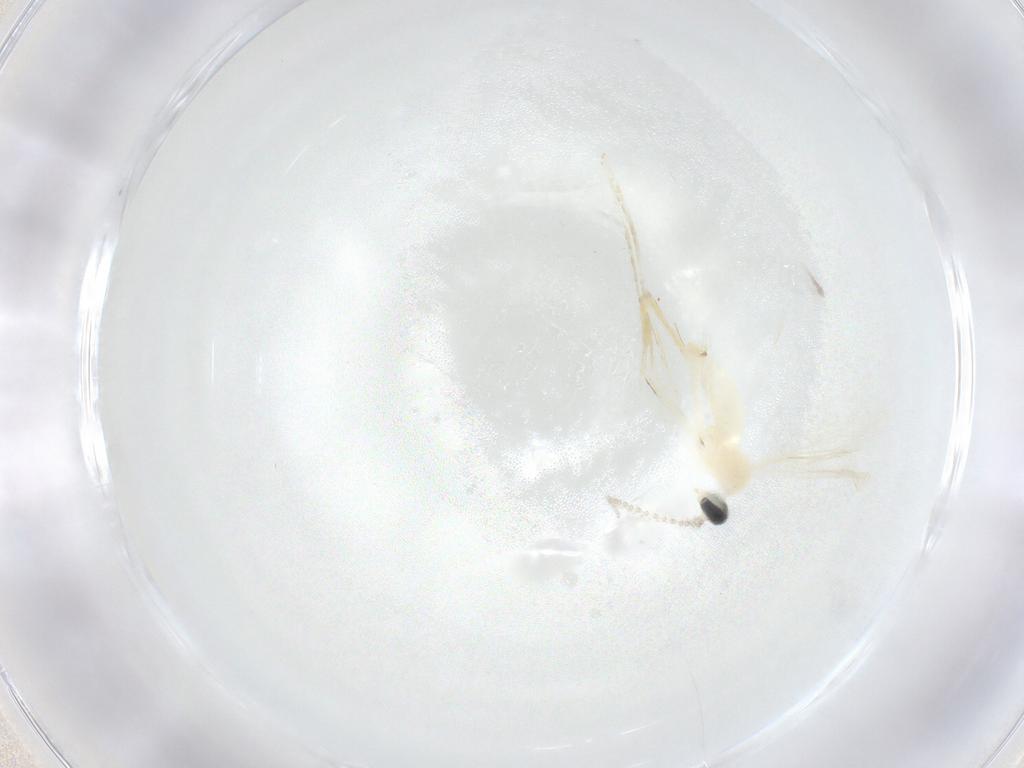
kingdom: Animalia
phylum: Arthropoda
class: Insecta
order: Diptera
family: Cecidomyiidae
